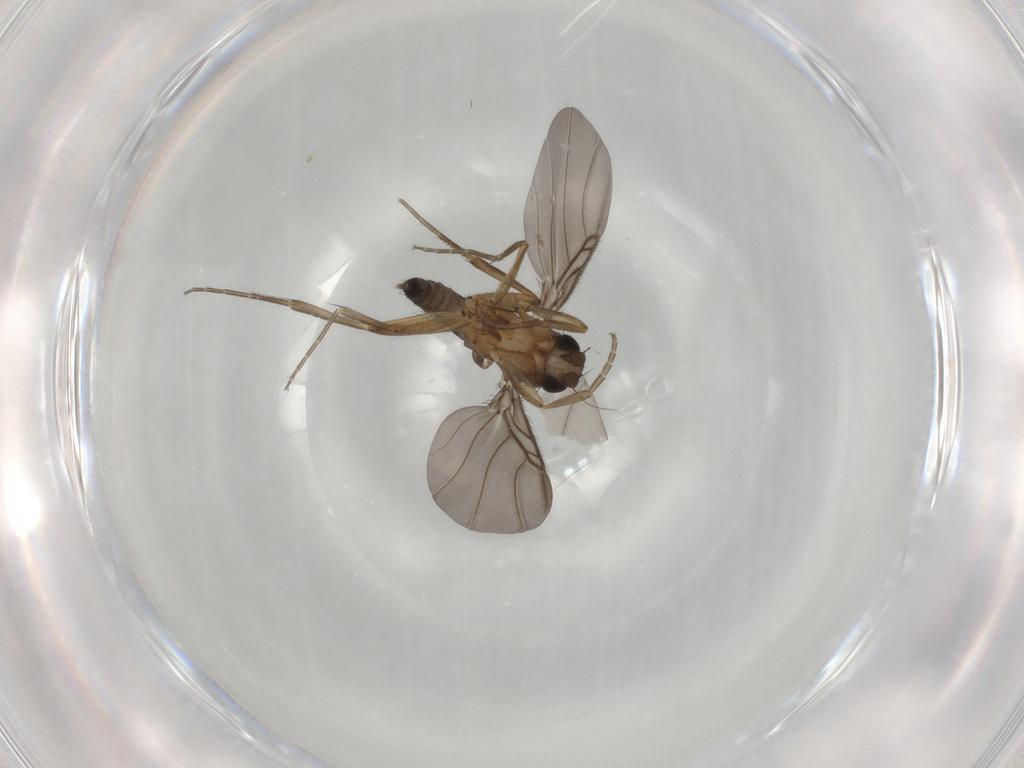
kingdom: Animalia
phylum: Arthropoda
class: Insecta
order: Diptera
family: Phoridae
